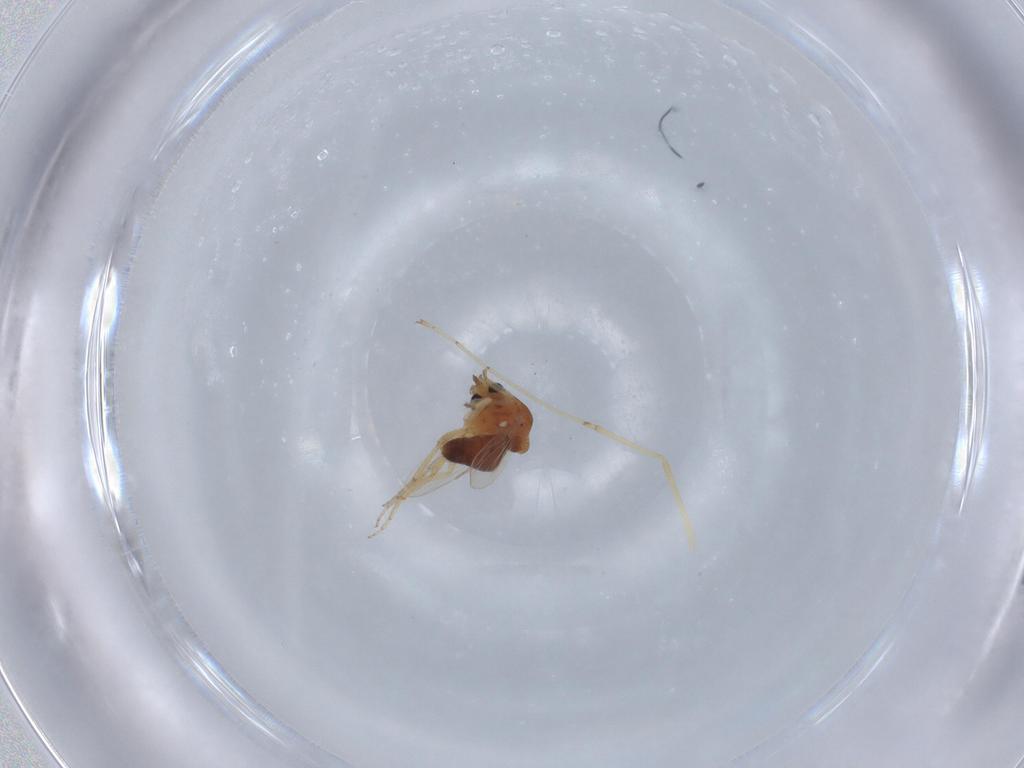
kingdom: Animalia
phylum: Arthropoda
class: Insecta
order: Diptera
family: Ceratopogonidae
